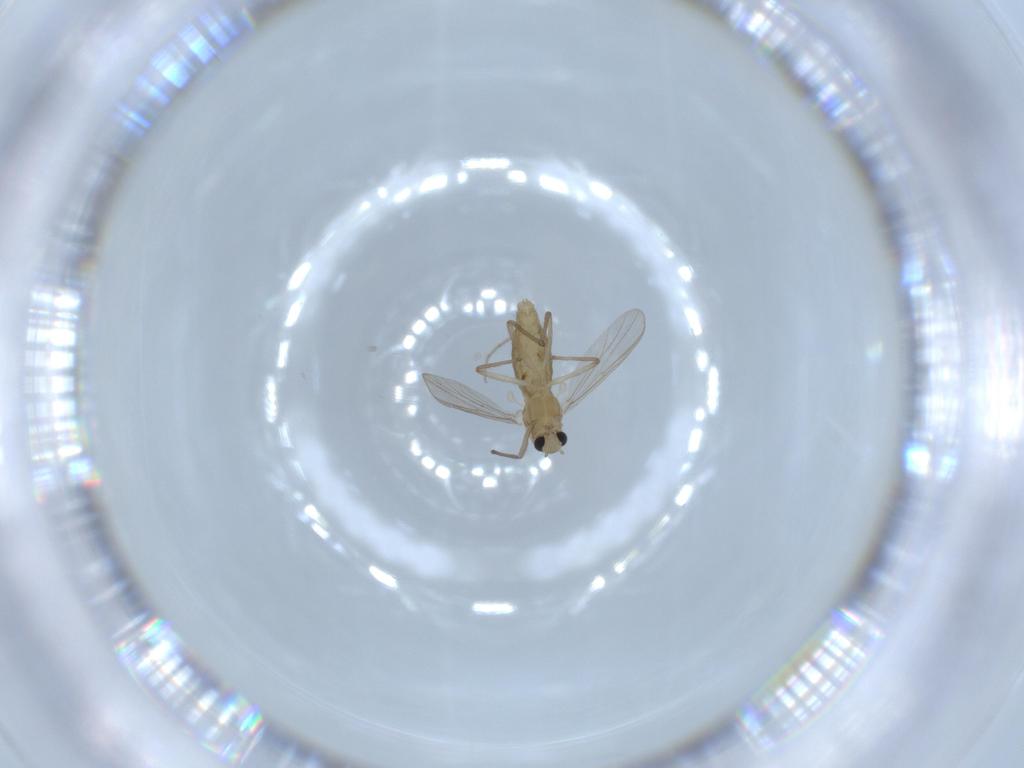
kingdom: Animalia
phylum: Arthropoda
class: Insecta
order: Diptera
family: Chironomidae
